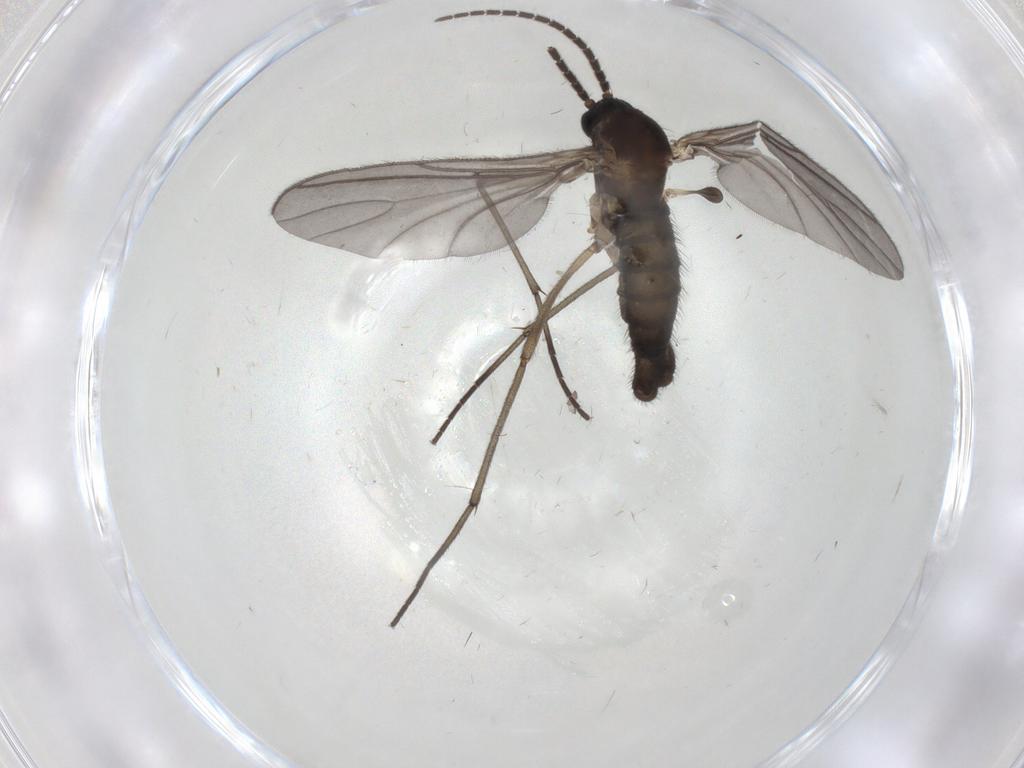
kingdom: Animalia
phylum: Arthropoda
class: Insecta
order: Diptera
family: Sciaridae
